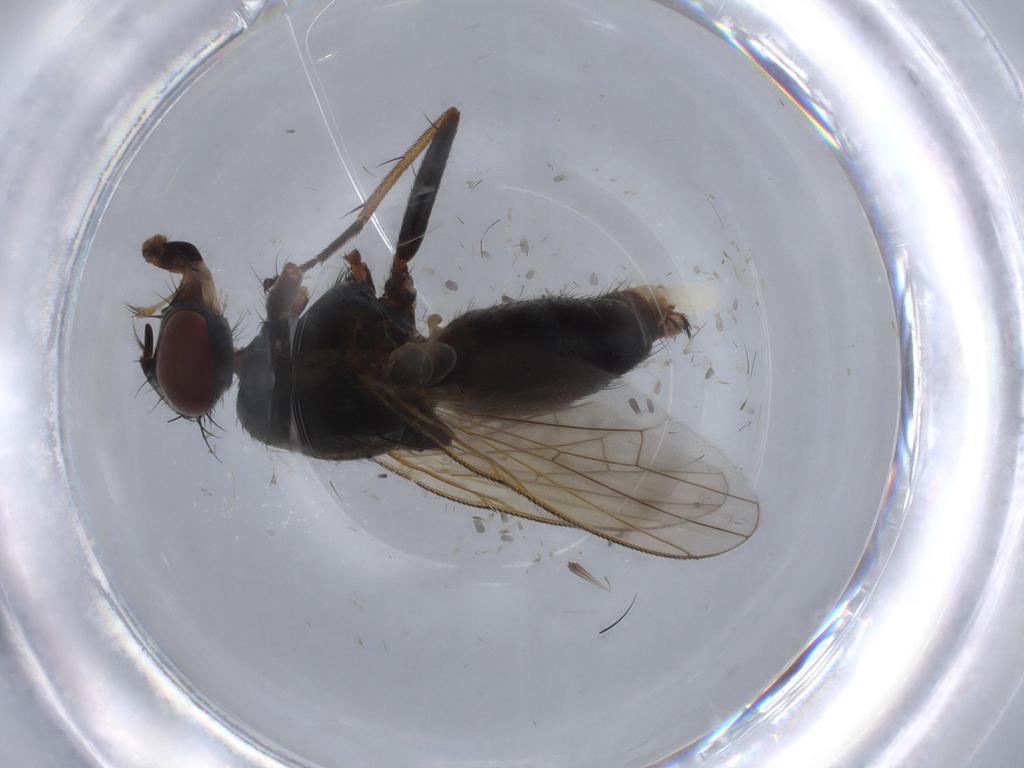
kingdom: Animalia
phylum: Arthropoda
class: Insecta
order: Diptera
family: Muscidae
